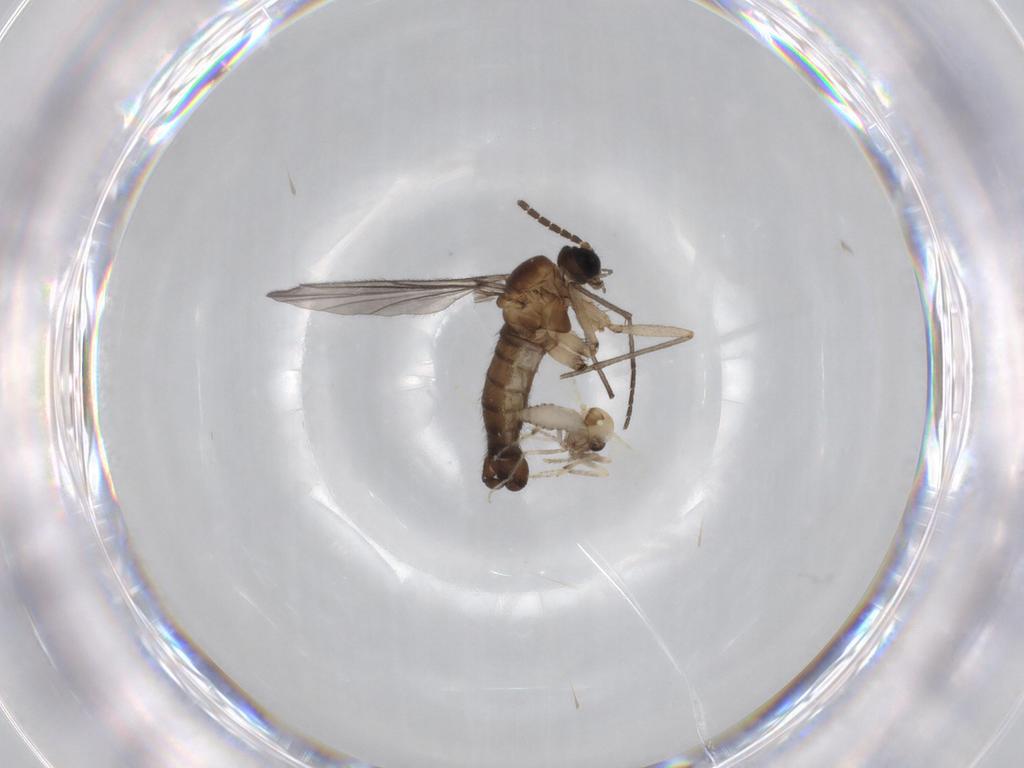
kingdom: Animalia
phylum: Arthropoda
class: Insecta
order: Diptera
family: Sciaridae
